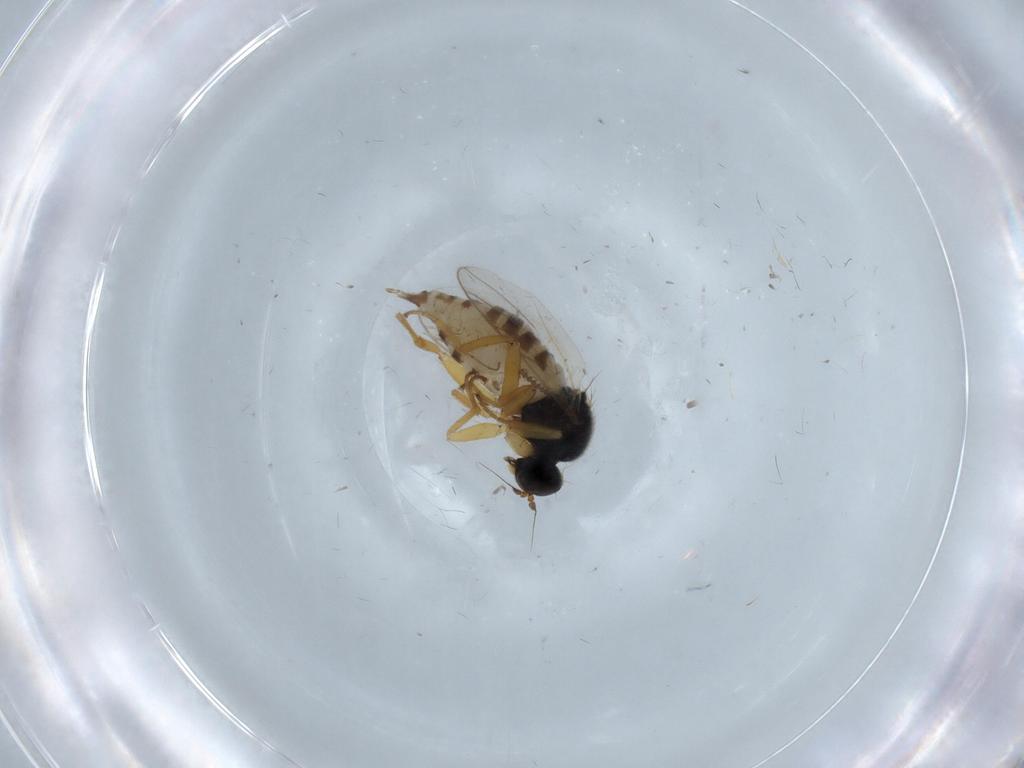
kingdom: Animalia
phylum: Arthropoda
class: Insecta
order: Diptera
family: Hybotidae
